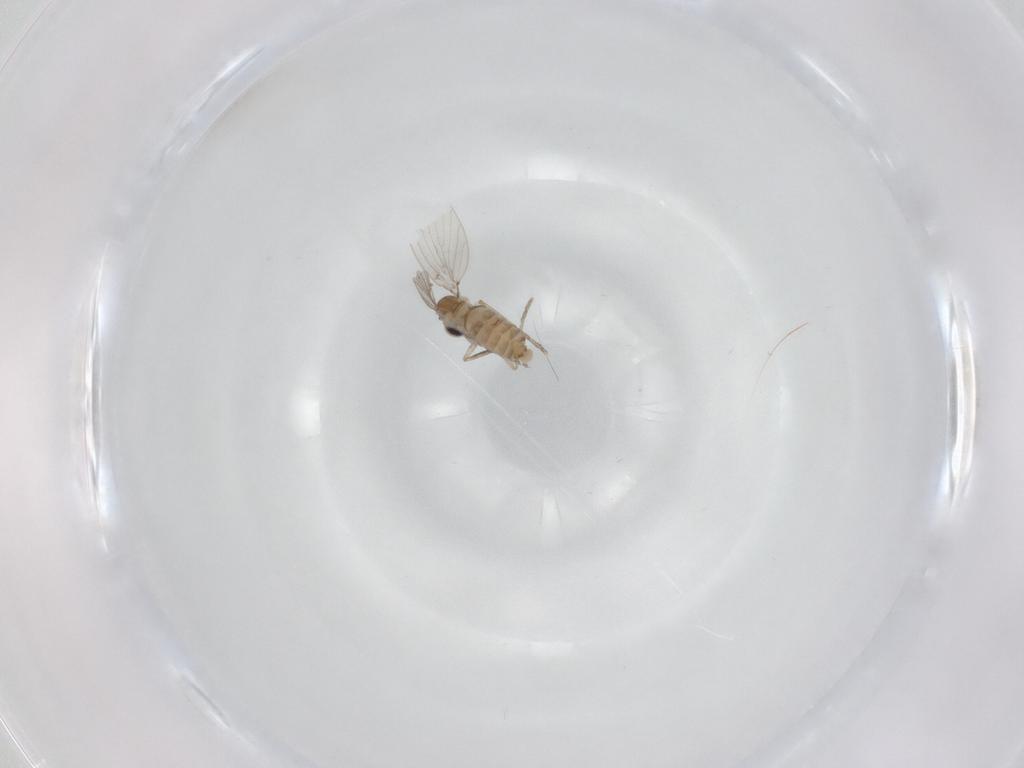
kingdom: Animalia
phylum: Arthropoda
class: Insecta
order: Diptera
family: Psychodidae
